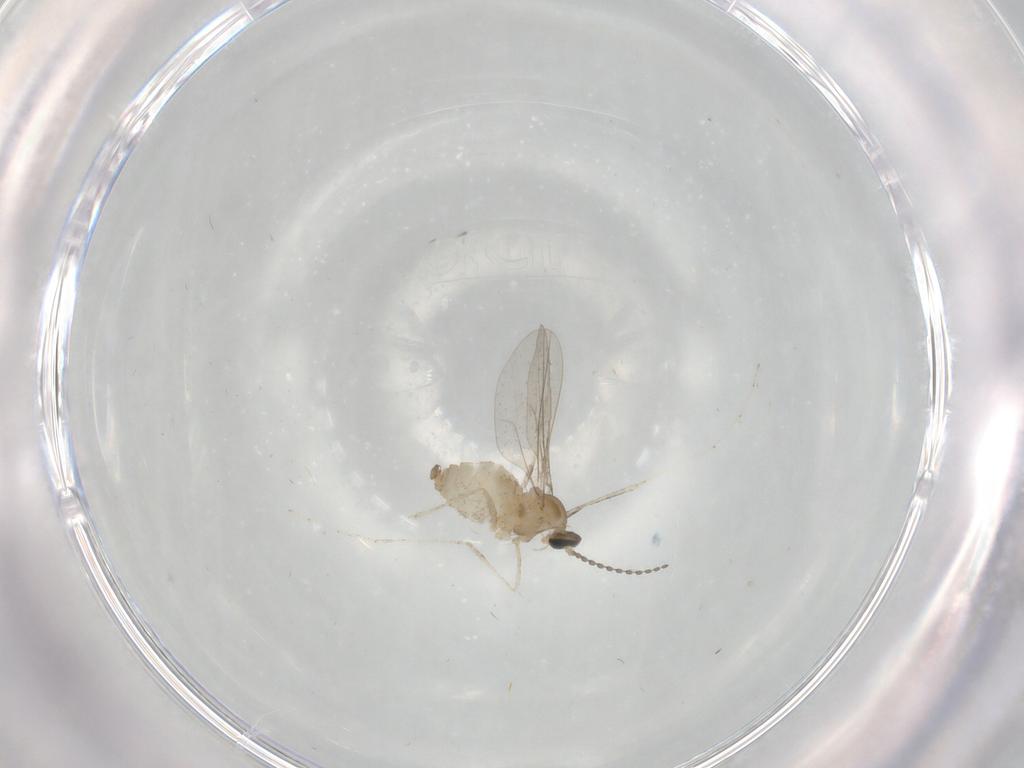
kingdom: Animalia
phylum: Arthropoda
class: Insecta
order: Diptera
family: Cecidomyiidae
